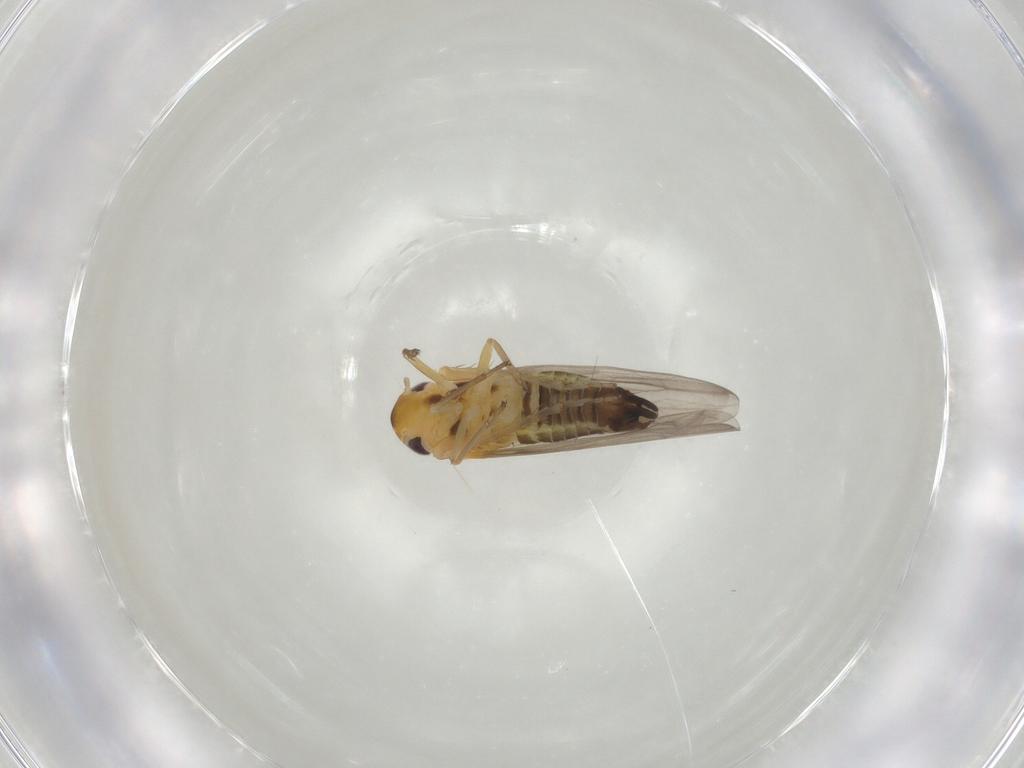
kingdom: Animalia
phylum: Arthropoda
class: Insecta
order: Hemiptera
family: Cicadellidae
